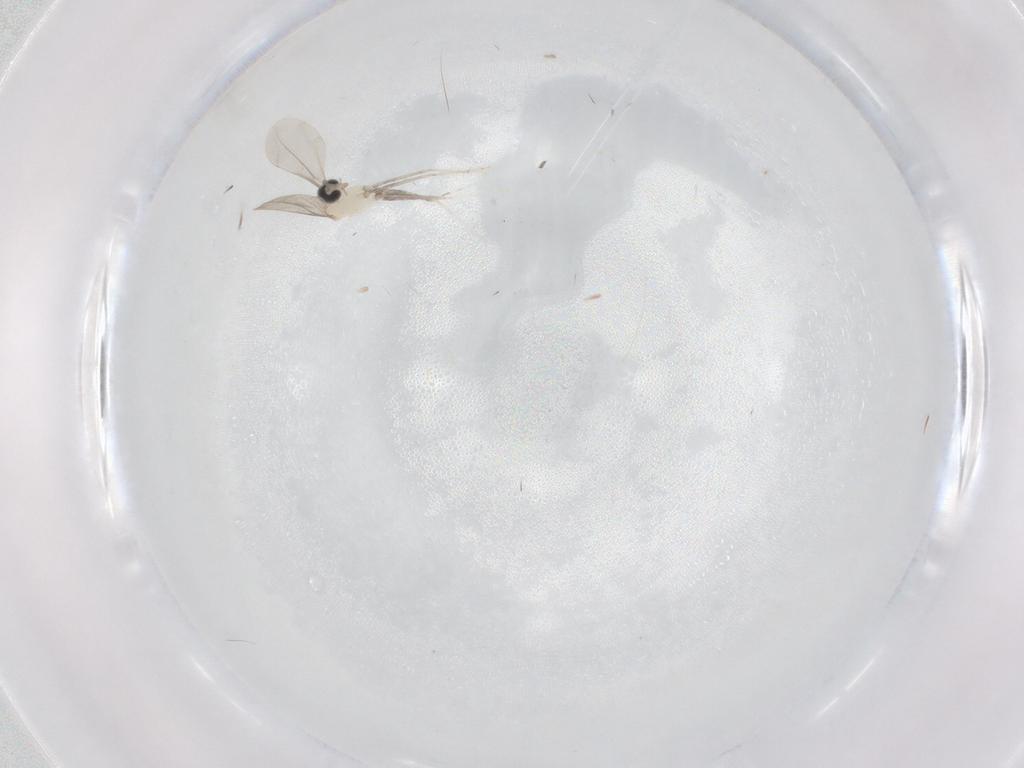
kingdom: Animalia
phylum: Arthropoda
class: Insecta
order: Diptera
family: Cecidomyiidae
